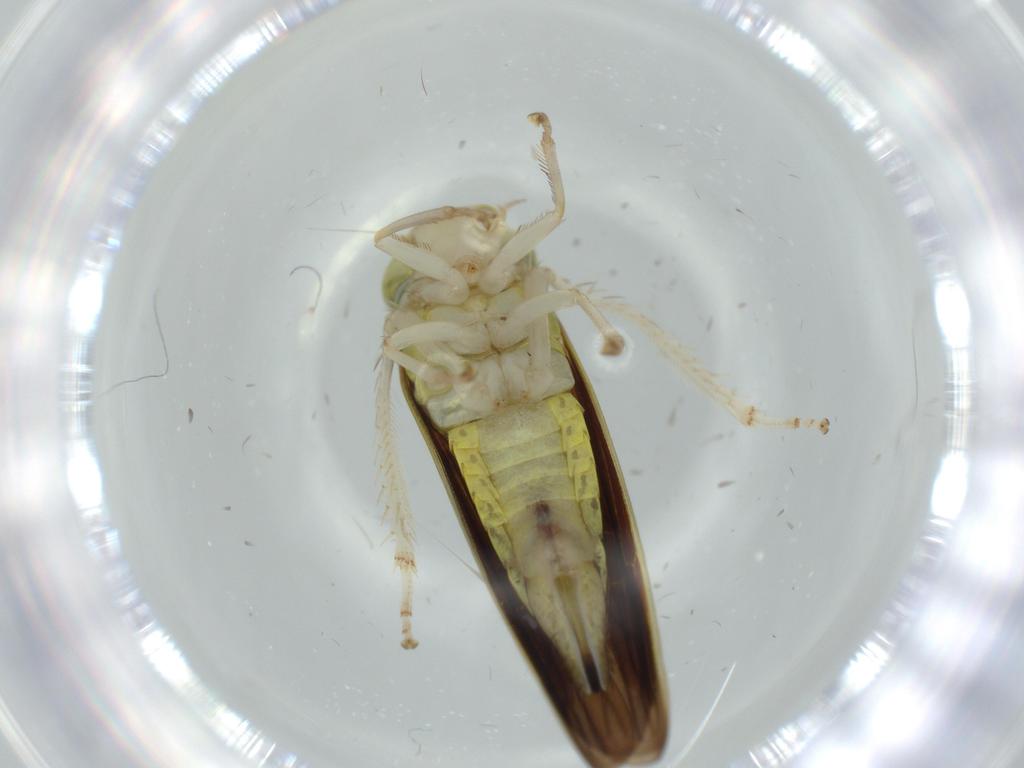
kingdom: Animalia
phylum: Arthropoda
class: Insecta
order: Hemiptera
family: Cicadellidae
